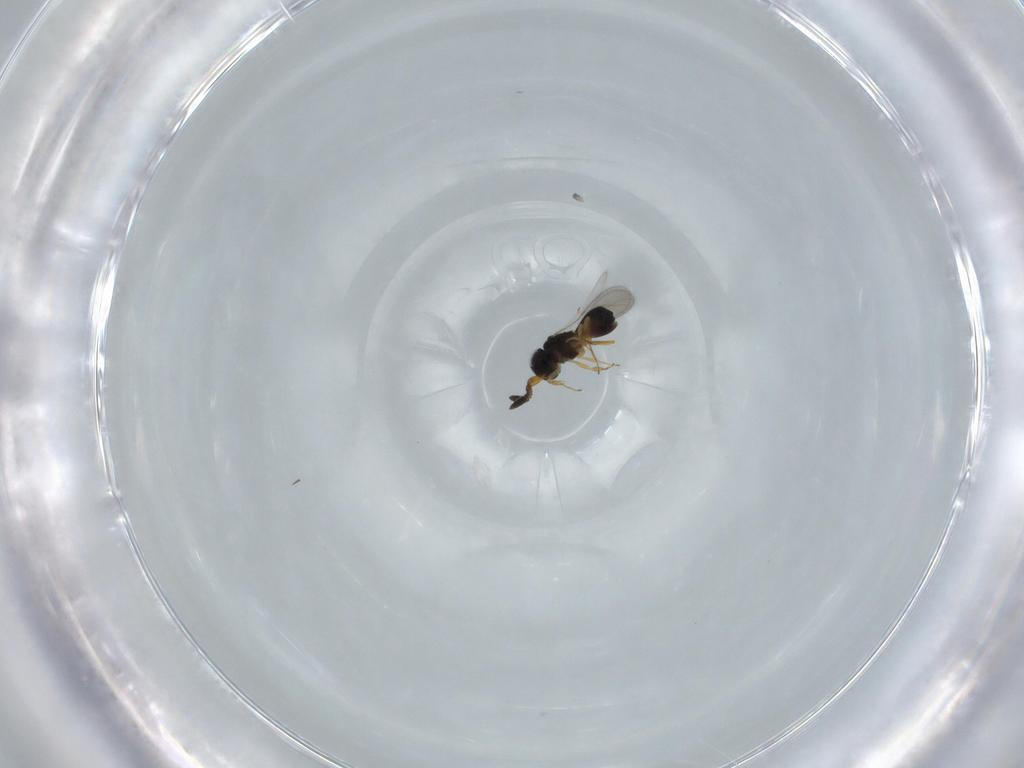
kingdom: Animalia
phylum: Arthropoda
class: Insecta
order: Hymenoptera
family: Scelionidae
